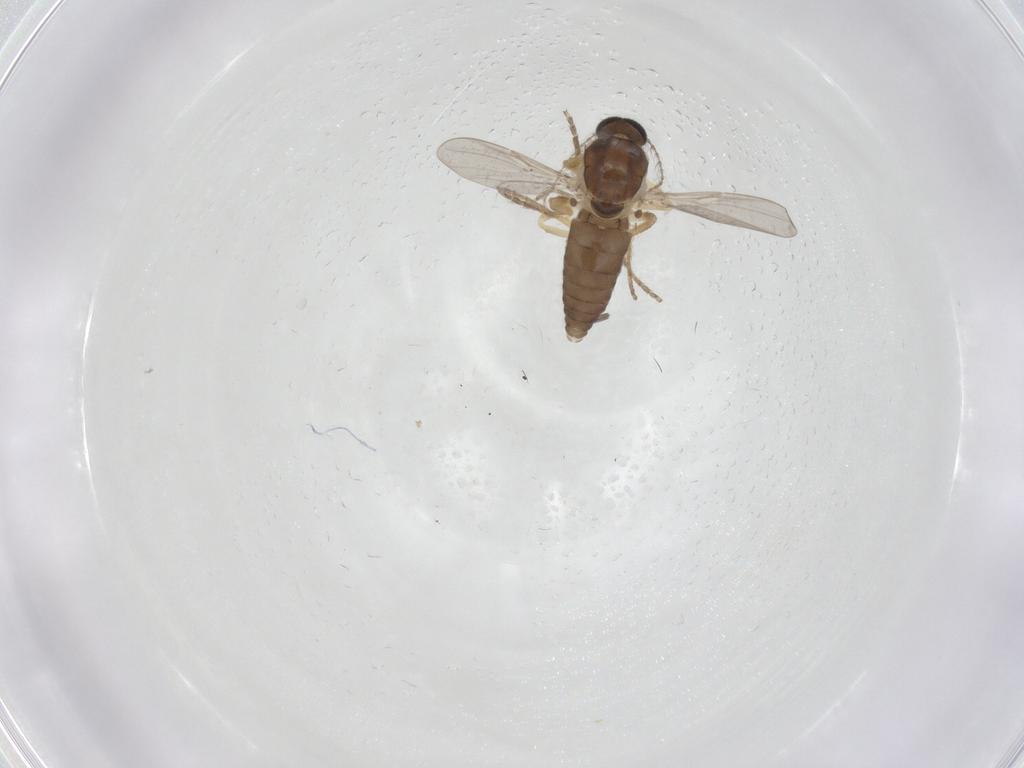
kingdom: Animalia
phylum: Arthropoda
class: Insecta
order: Diptera
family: Ceratopogonidae
